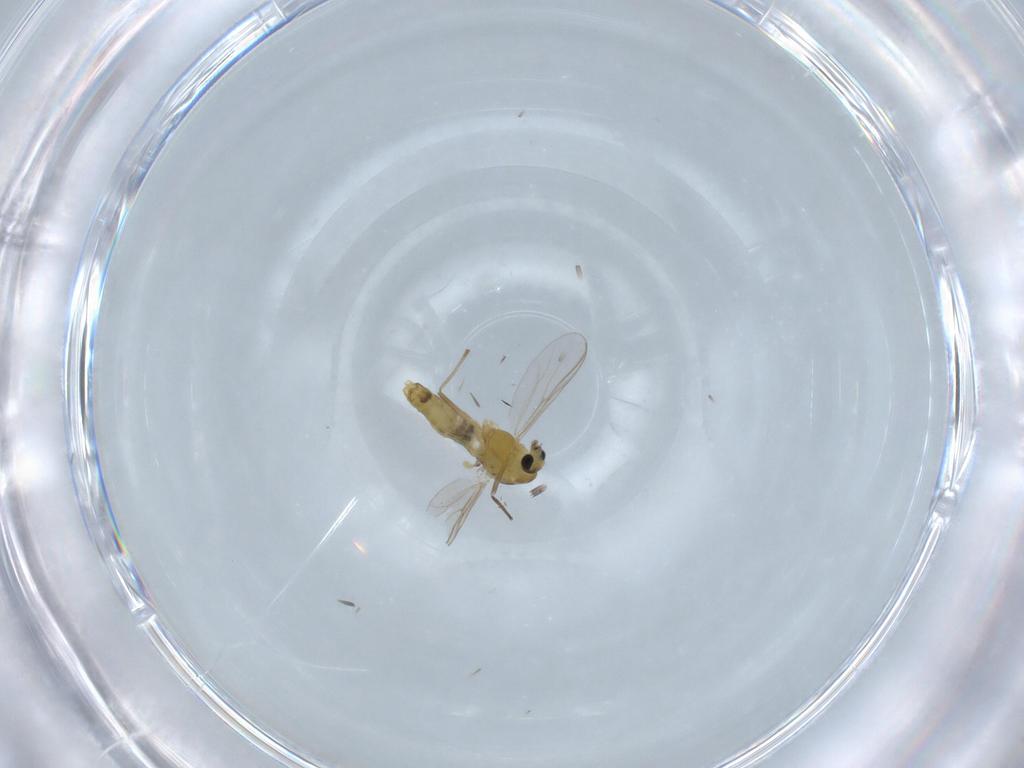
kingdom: Animalia
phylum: Arthropoda
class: Insecta
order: Diptera
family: Chironomidae
